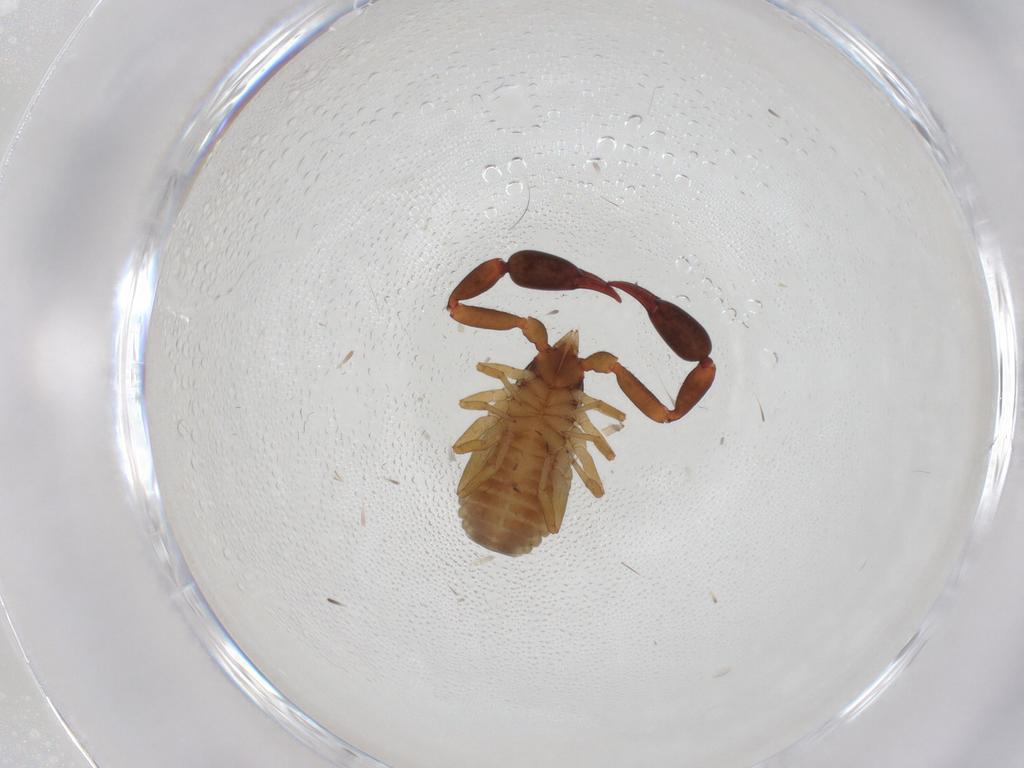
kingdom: Animalia
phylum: Arthropoda
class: Arachnida
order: Pseudoscorpiones
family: Withiidae
